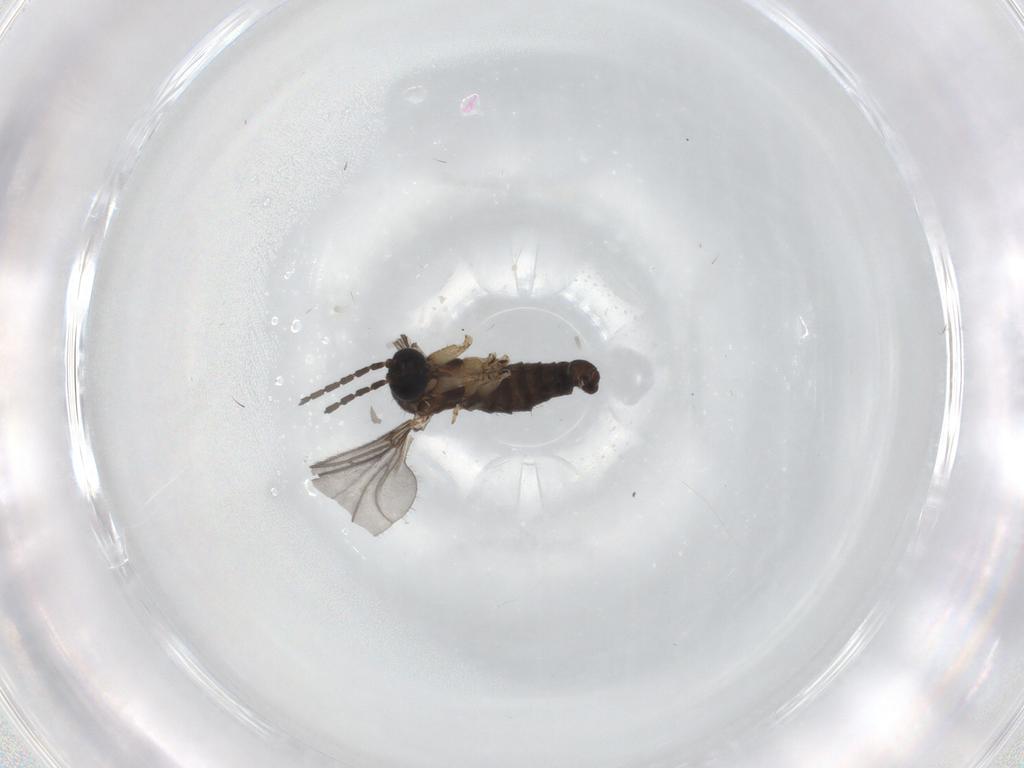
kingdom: Animalia
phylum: Arthropoda
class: Insecta
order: Diptera
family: Sciaridae
